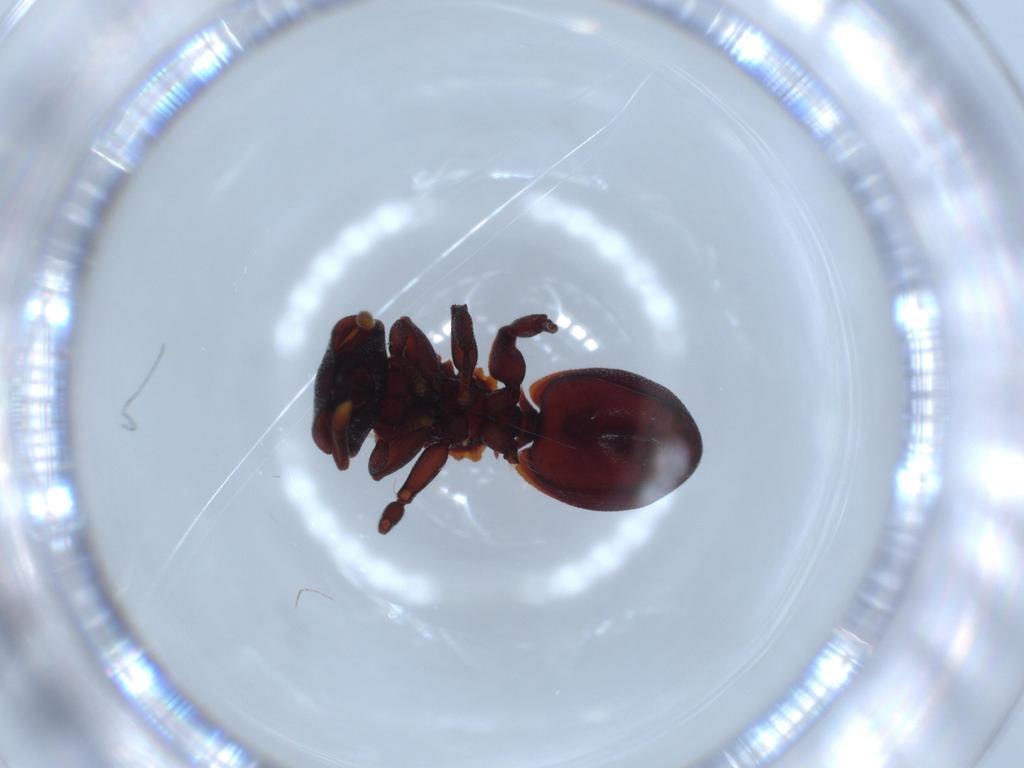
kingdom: Animalia
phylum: Arthropoda
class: Insecta
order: Hymenoptera
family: Formicidae
